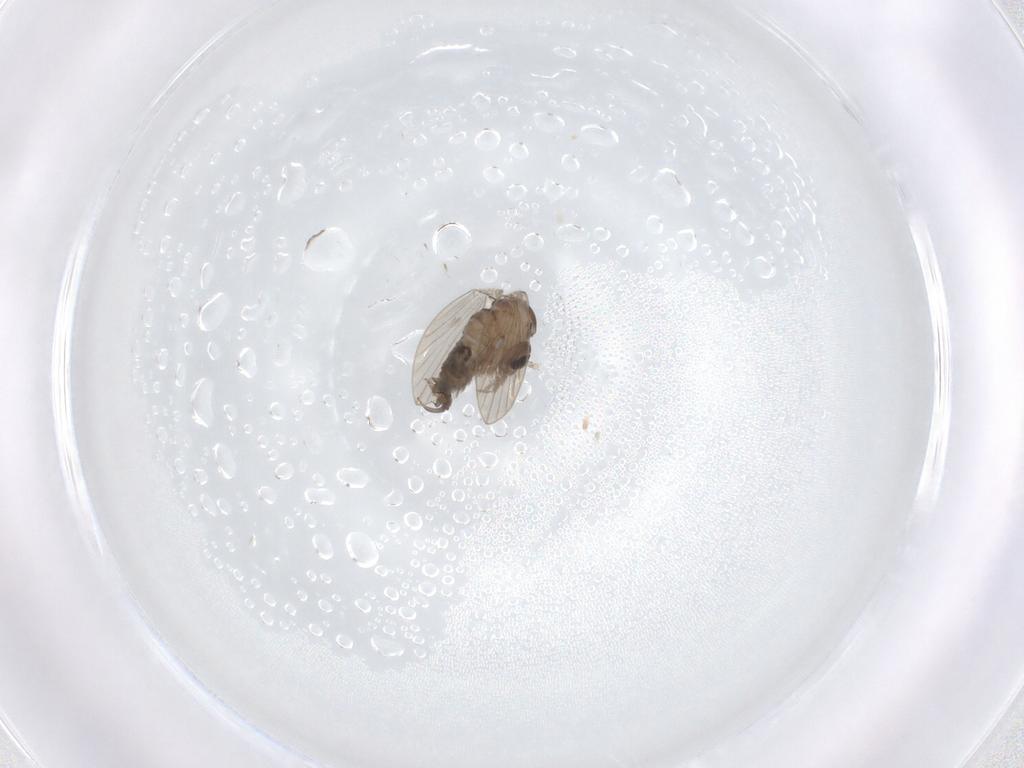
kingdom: Animalia
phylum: Arthropoda
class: Insecta
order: Diptera
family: Psychodidae
